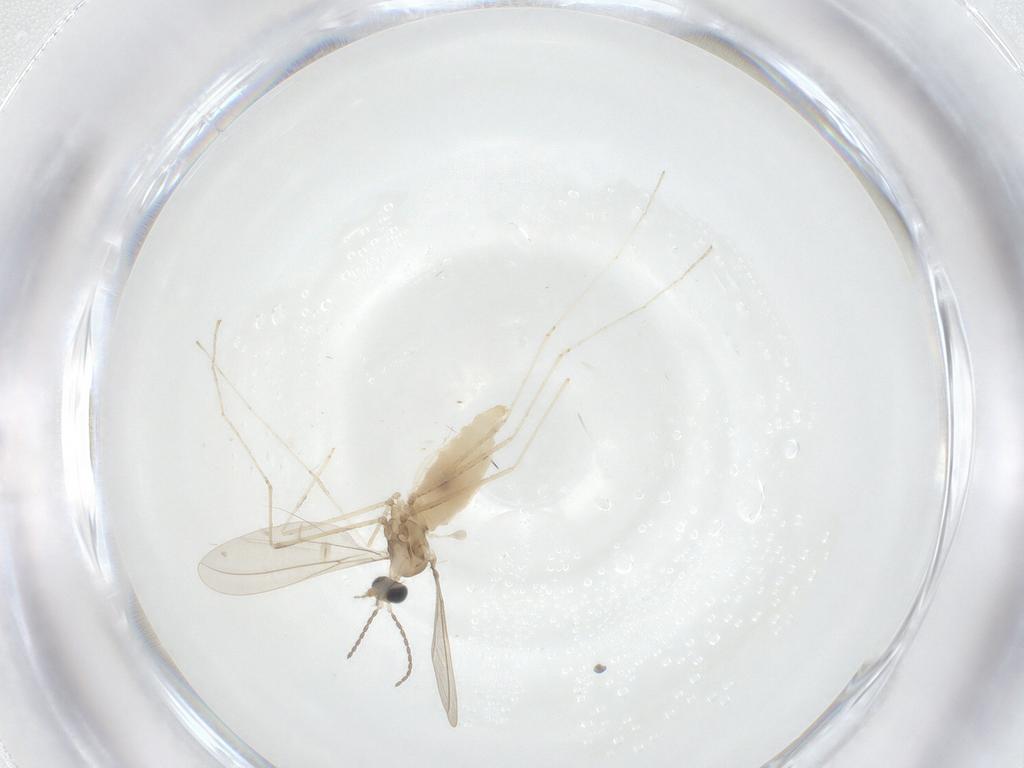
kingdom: Animalia
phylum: Arthropoda
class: Insecta
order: Diptera
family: Cecidomyiidae
